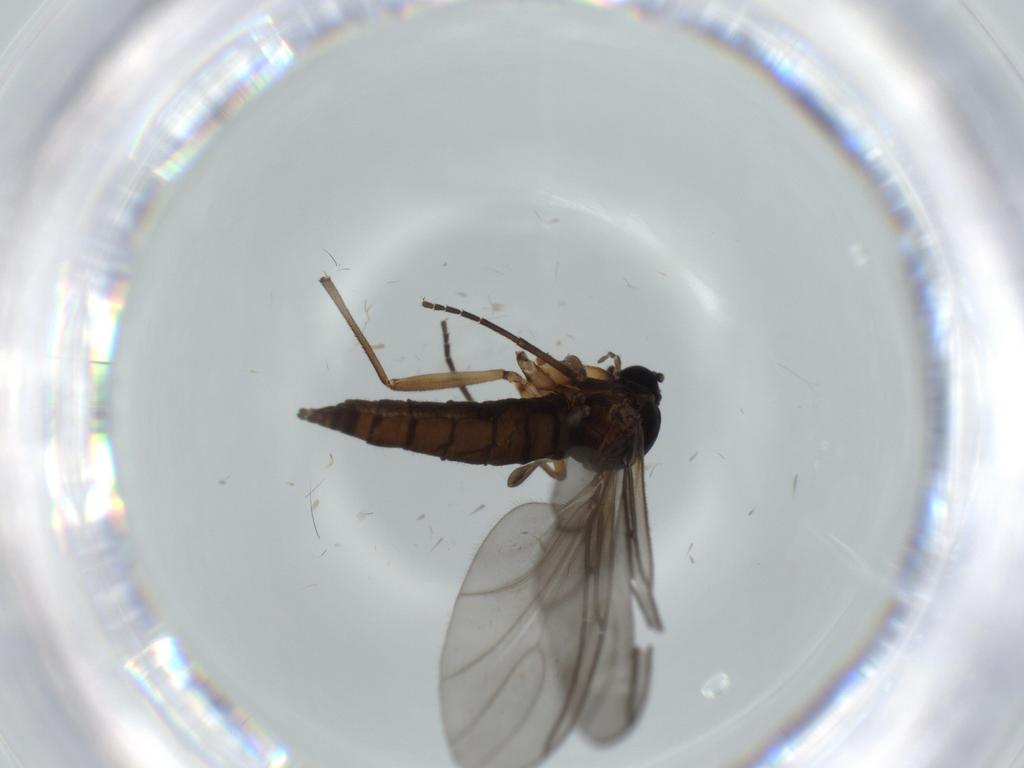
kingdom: Animalia
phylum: Arthropoda
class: Insecta
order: Diptera
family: Sciaridae
